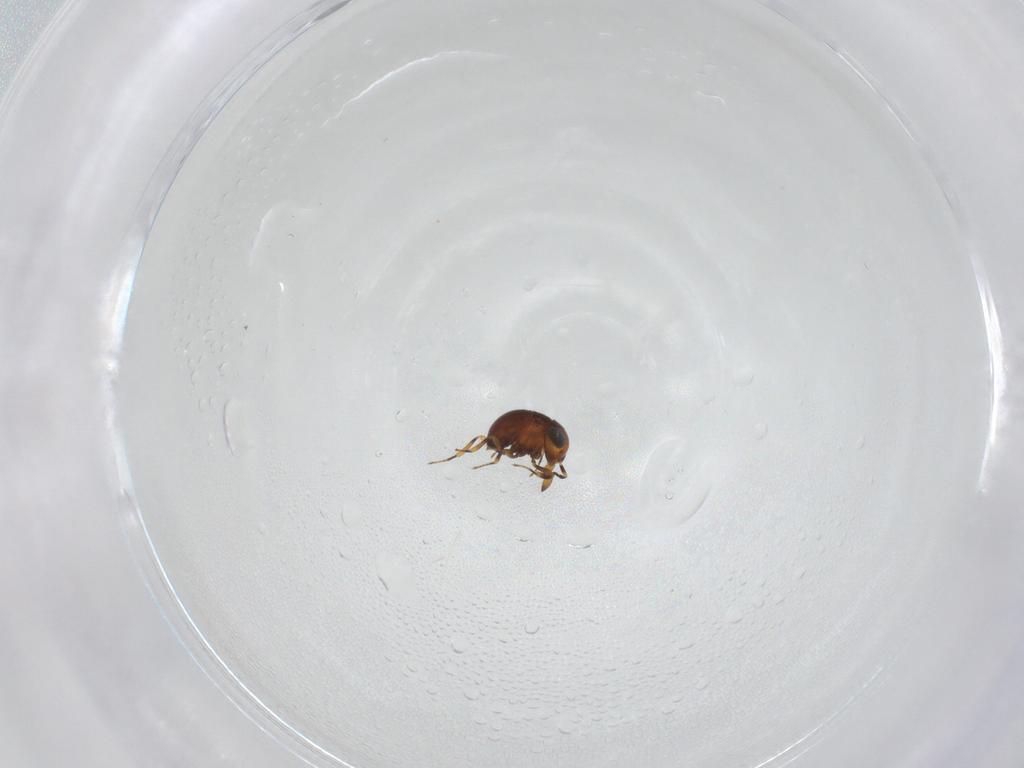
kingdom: Animalia
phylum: Arthropoda
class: Insecta
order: Hymenoptera
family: Scelionidae
